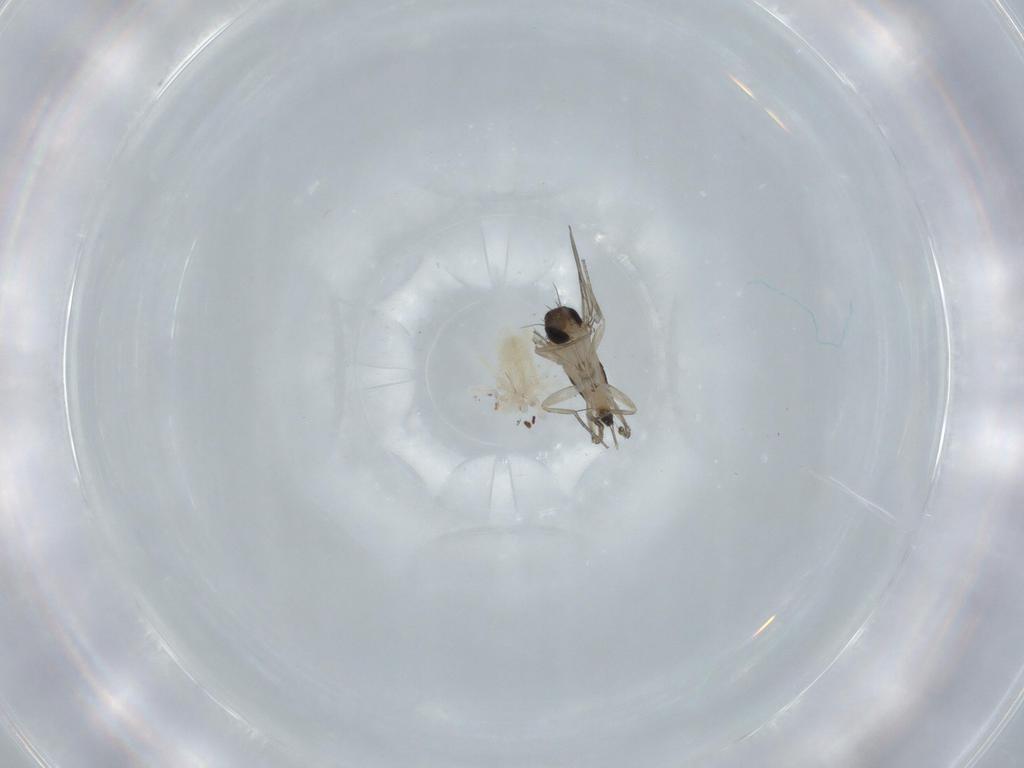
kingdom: Animalia
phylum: Arthropoda
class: Insecta
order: Diptera
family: Phoridae
